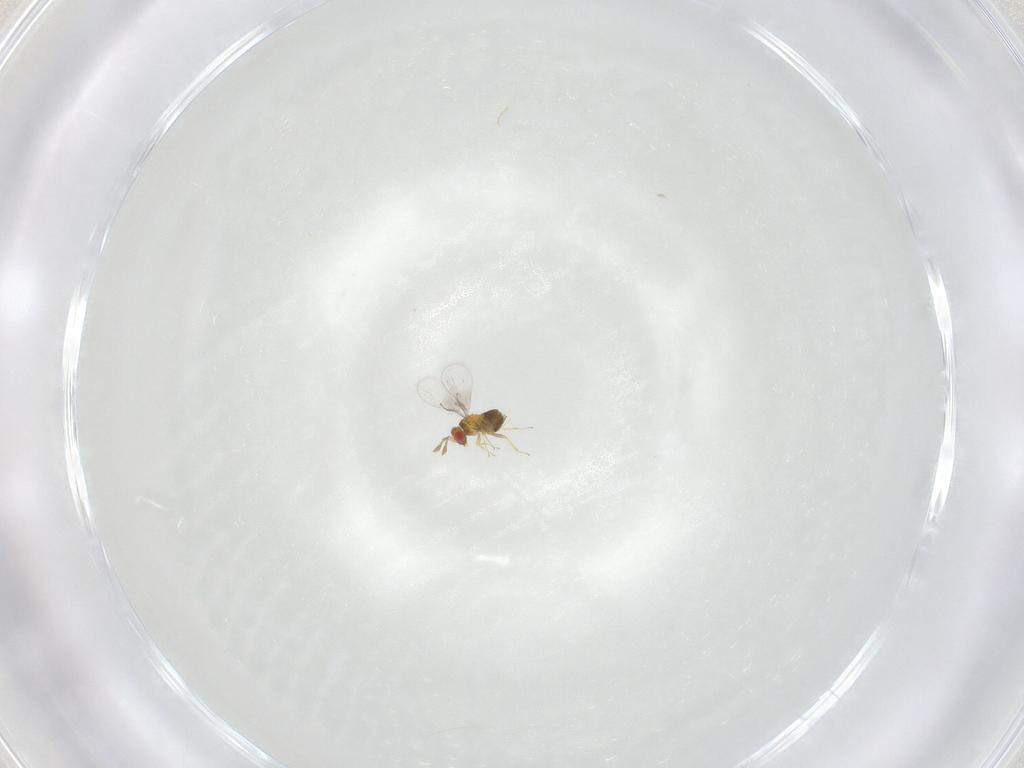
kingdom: Animalia
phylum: Arthropoda
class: Insecta
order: Hymenoptera
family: Trichogrammatidae
